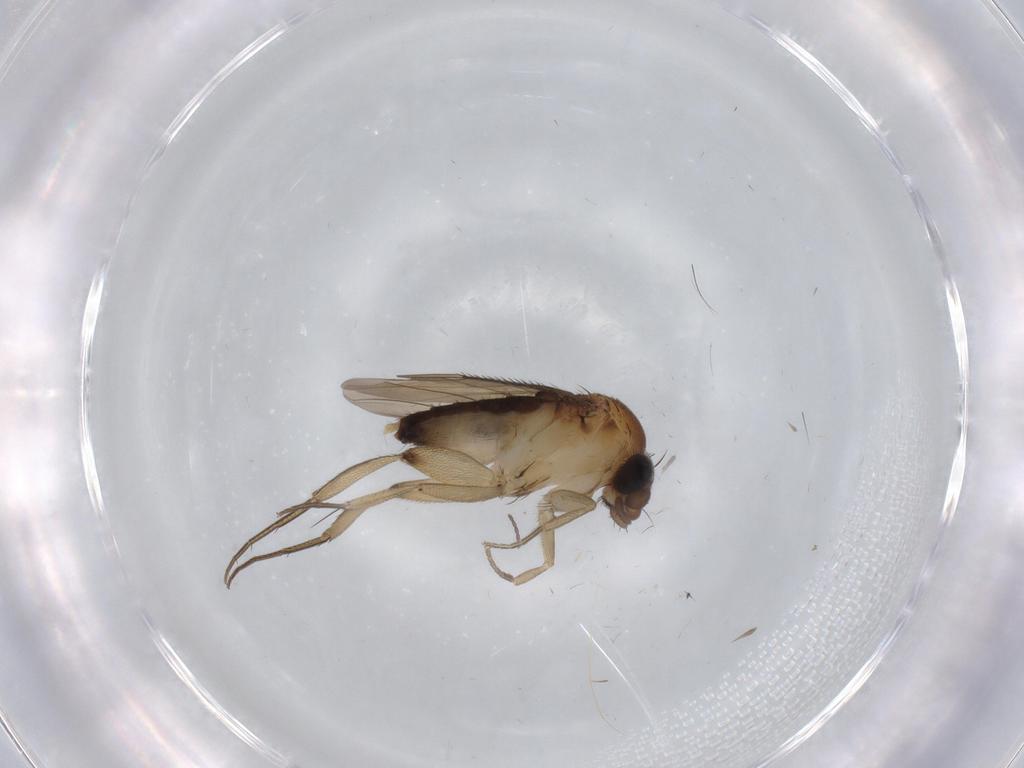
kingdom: Animalia
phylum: Arthropoda
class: Insecta
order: Diptera
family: Phoridae
